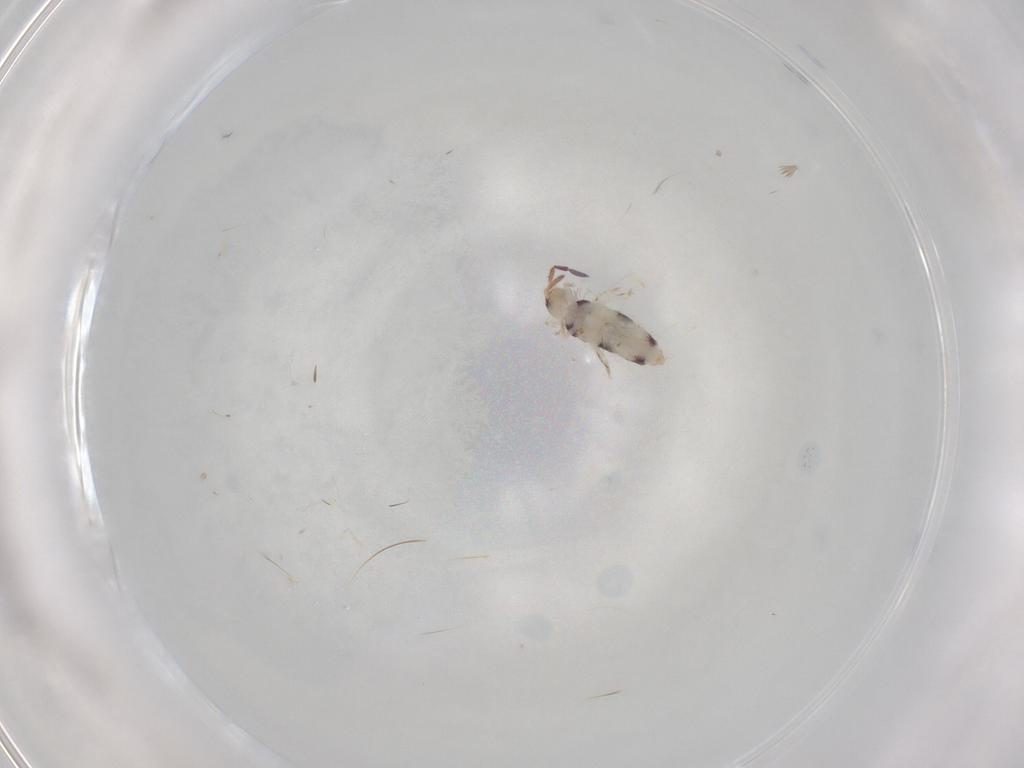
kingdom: Animalia
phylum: Arthropoda
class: Collembola
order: Entomobryomorpha
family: Entomobryidae
